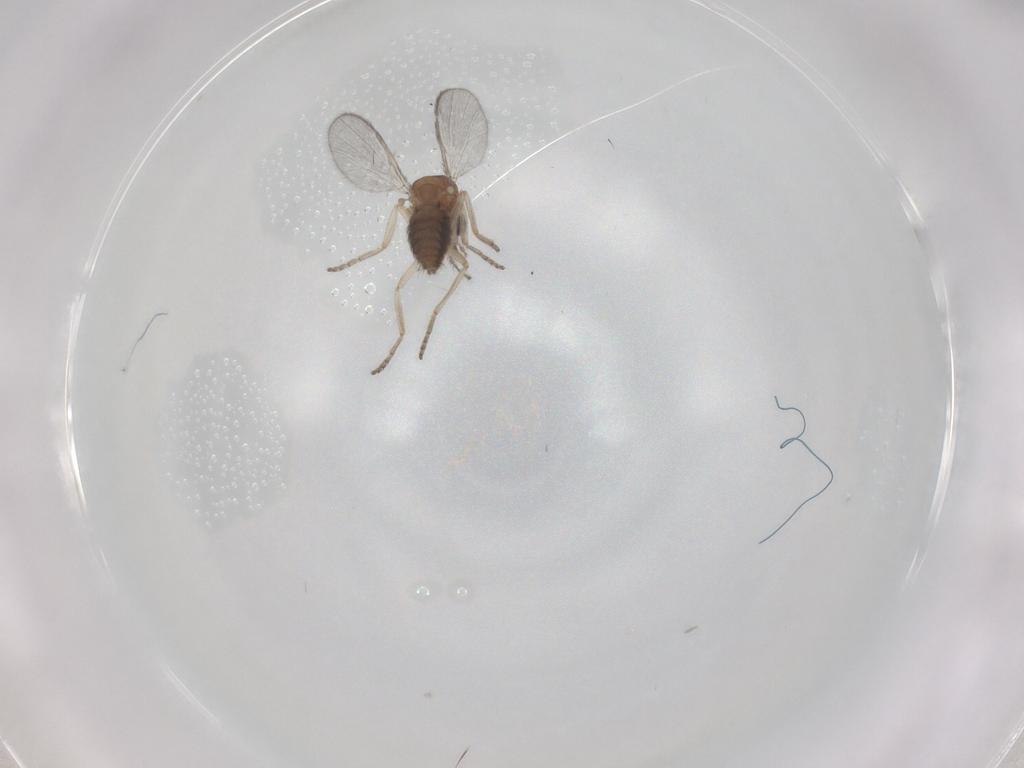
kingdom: Animalia
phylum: Arthropoda
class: Insecta
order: Diptera
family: Ceratopogonidae
